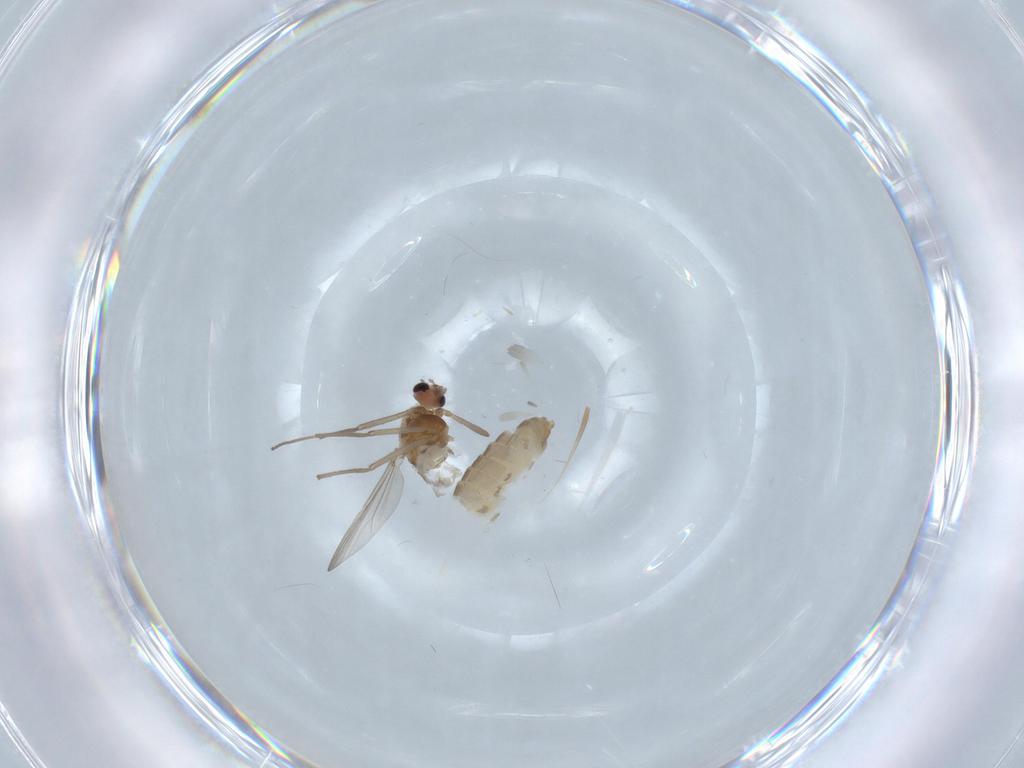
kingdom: Animalia
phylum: Arthropoda
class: Insecta
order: Diptera
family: Chironomidae
